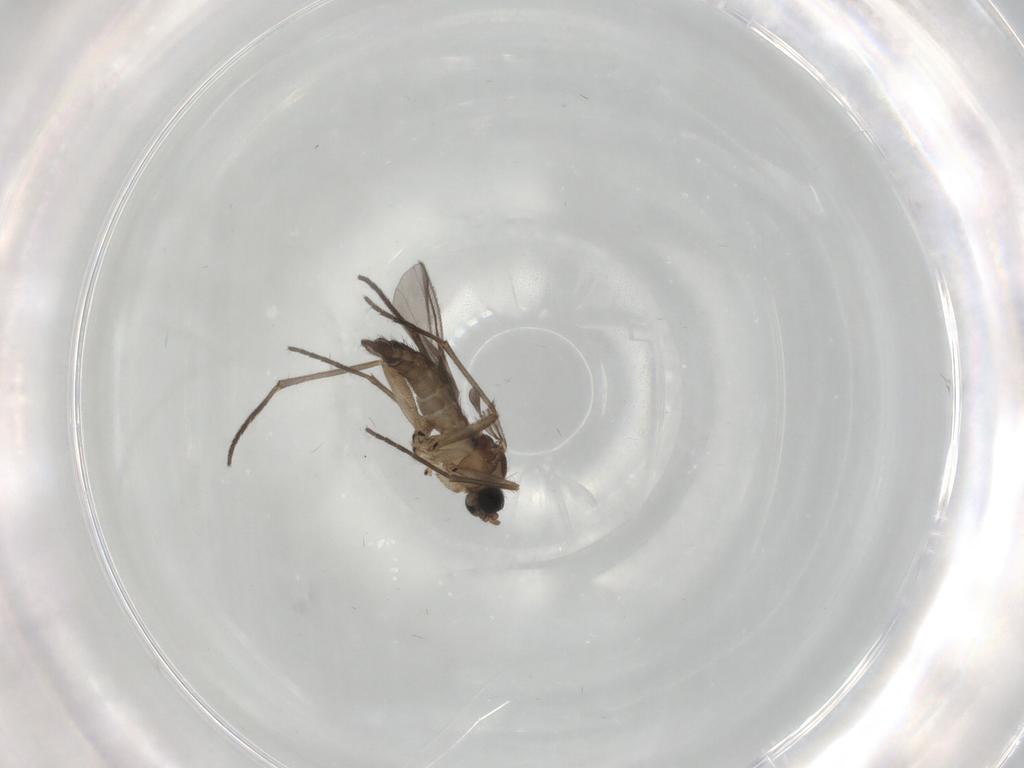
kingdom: Animalia
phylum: Arthropoda
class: Insecta
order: Diptera
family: Sciaridae
